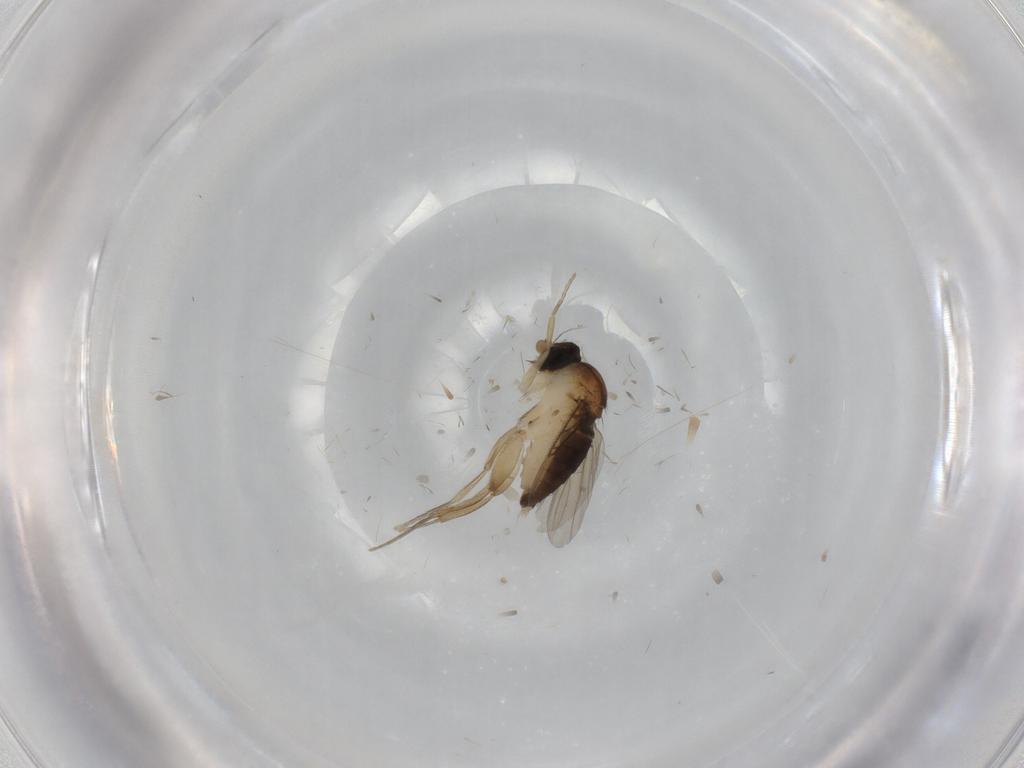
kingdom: Animalia
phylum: Arthropoda
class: Insecta
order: Diptera
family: Phoridae
